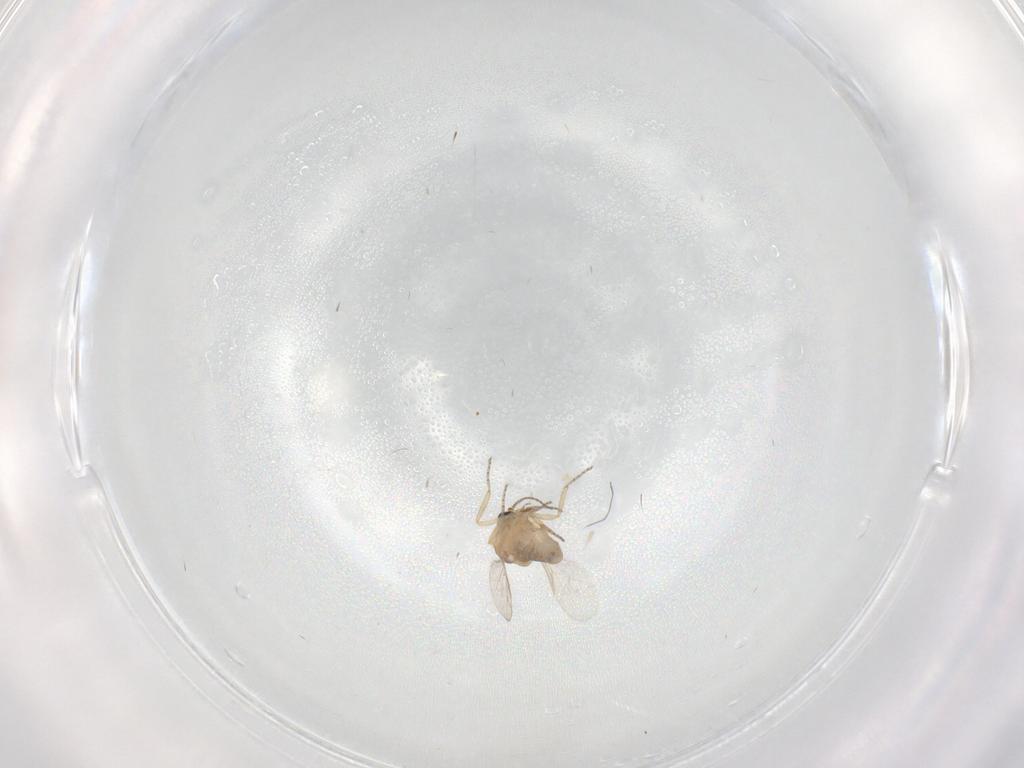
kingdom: Animalia
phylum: Arthropoda
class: Insecta
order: Diptera
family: Ceratopogonidae
